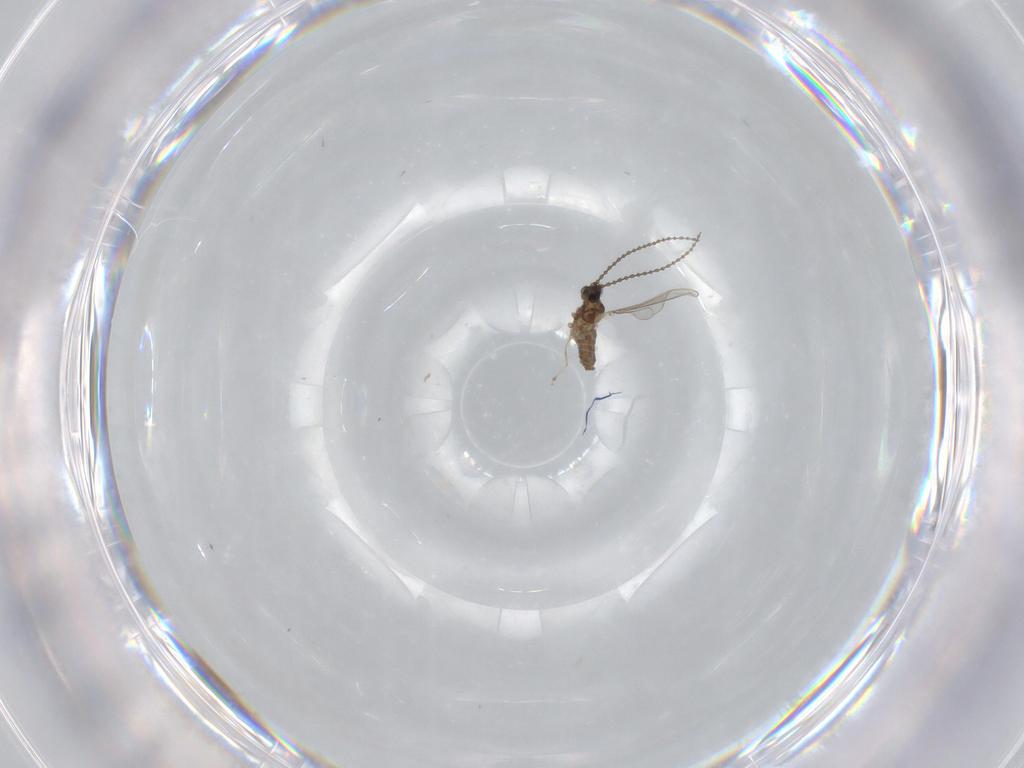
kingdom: Animalia
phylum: Arthropoda
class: Insecta
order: Diptera
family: Cecidomyiidae
